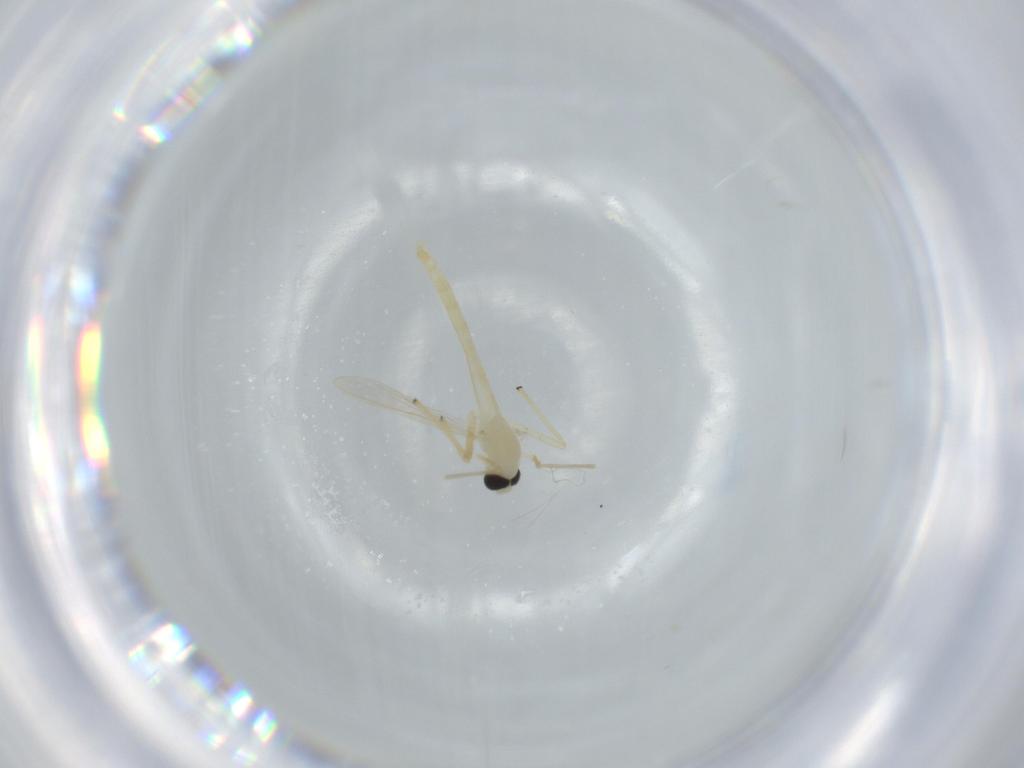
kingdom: Animalia
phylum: Arthropoda
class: Insecta
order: Diptera
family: Chironomidae
